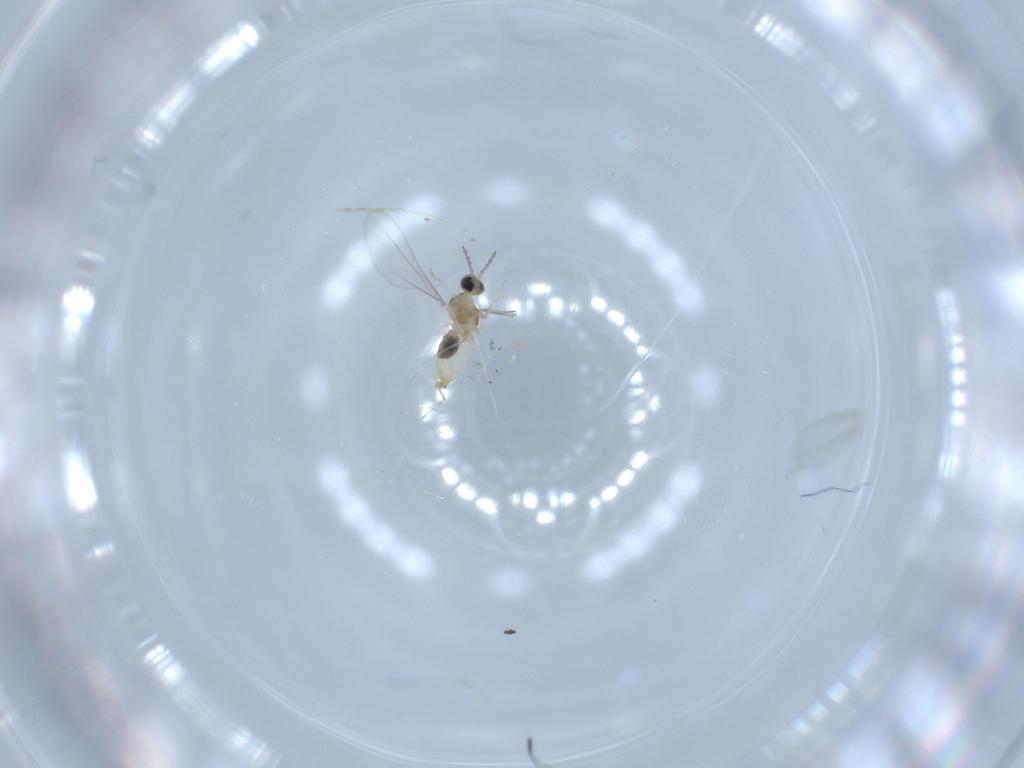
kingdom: Animalia
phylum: Arthropoda
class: Insecta
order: Diptera
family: Cecidomyiidae
